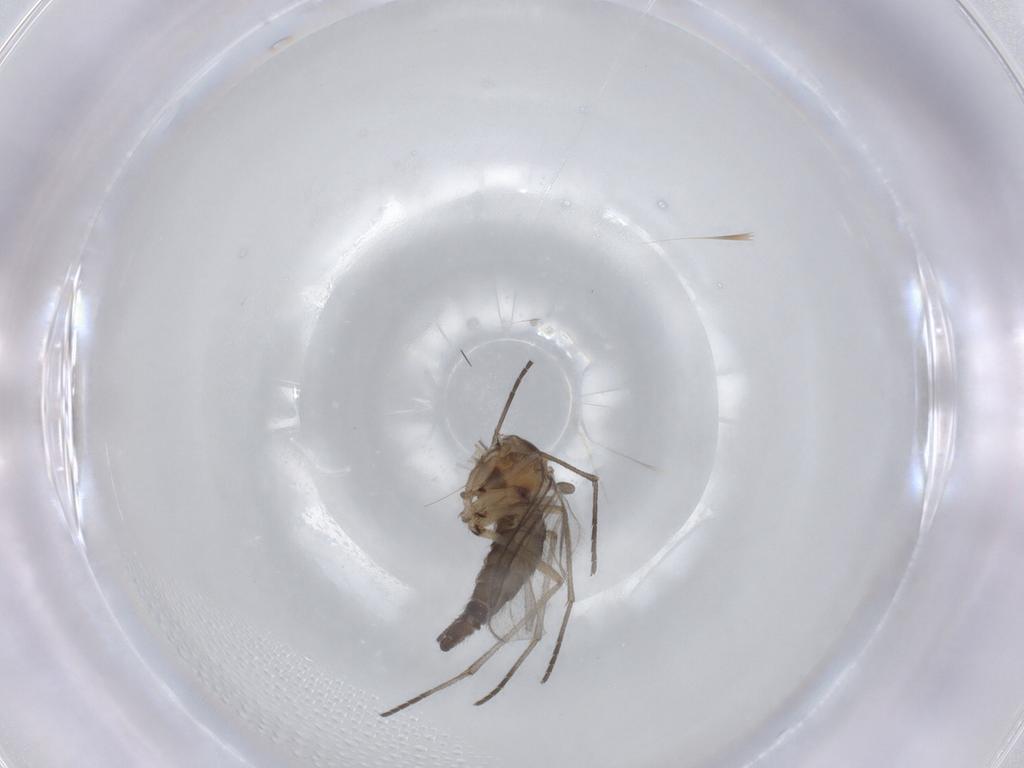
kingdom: Animalia
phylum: Arthropoda
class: Insecta
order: Diptera
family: Sciaridae
